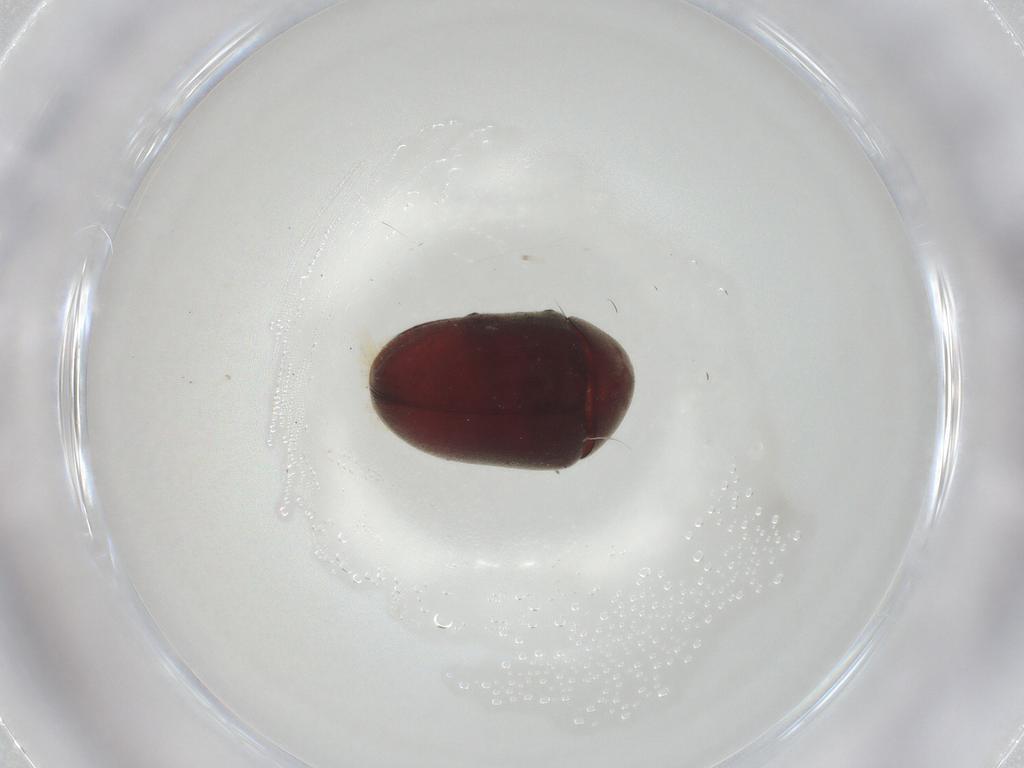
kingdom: Animalia
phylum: Arthropoda
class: Insecta
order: Coleoptera
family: Anobiidae
